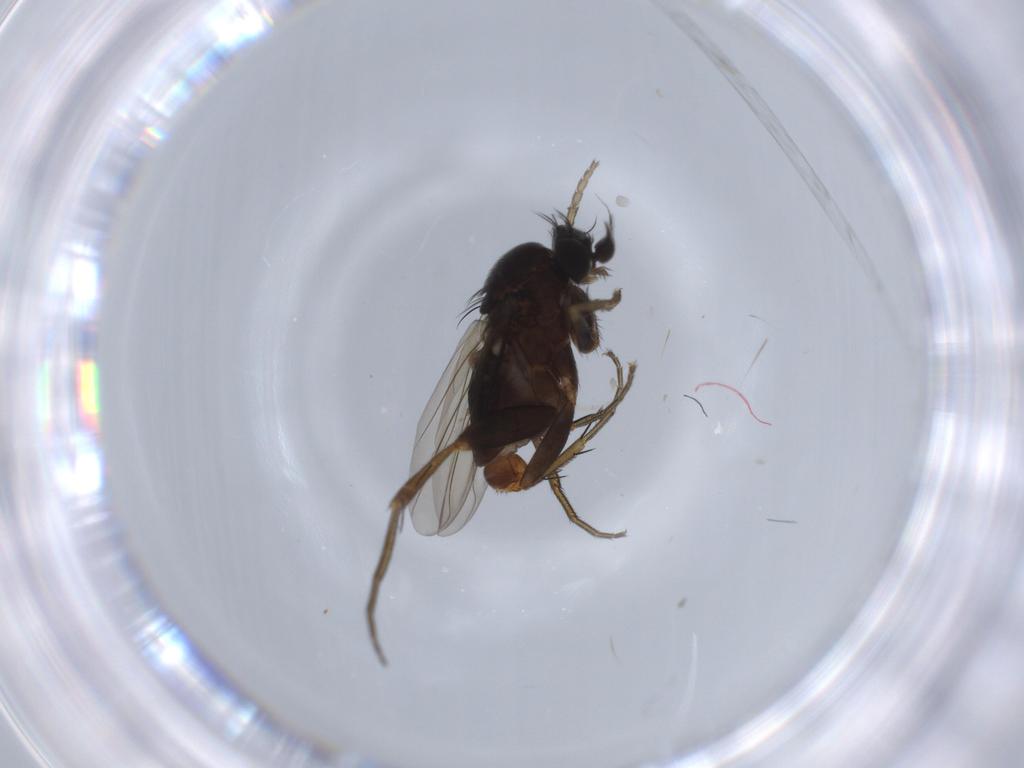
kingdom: Animalia
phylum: Arthropoda
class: Insecta
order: Diptera
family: Phoridae
